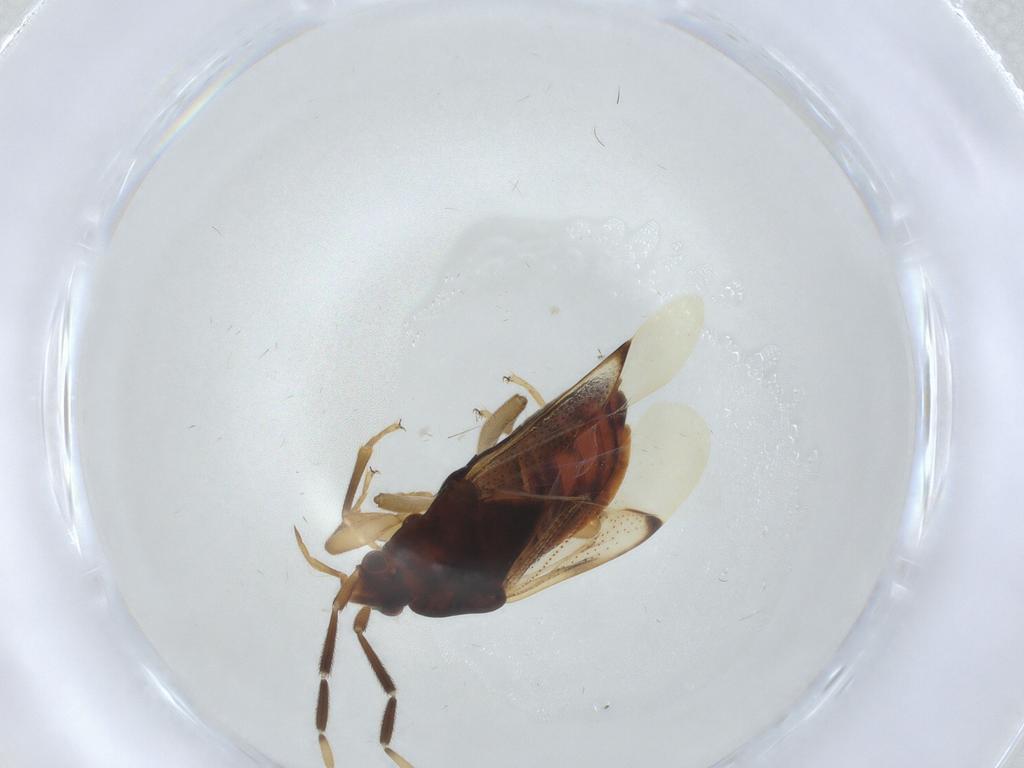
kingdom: Animalia
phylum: Arthropoda
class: Insecta
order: Hemiptera
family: Rhyparochromidae
